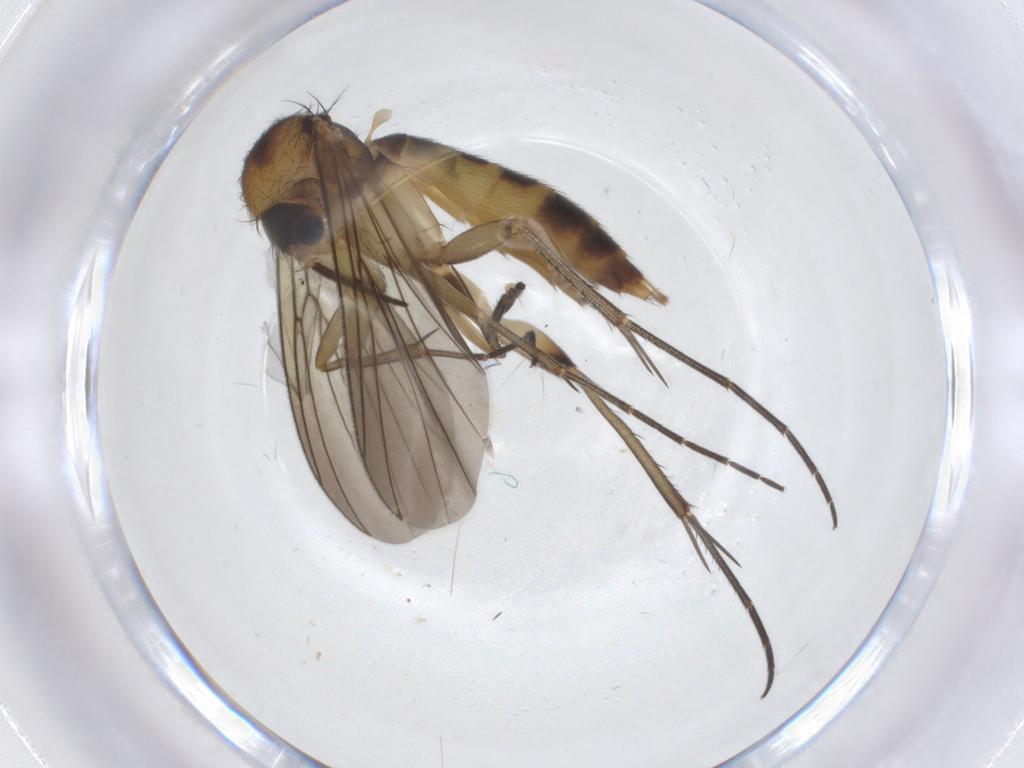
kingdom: Animalia
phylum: Arthropoda
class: Insecta
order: Diptera
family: Mycetophilidae
